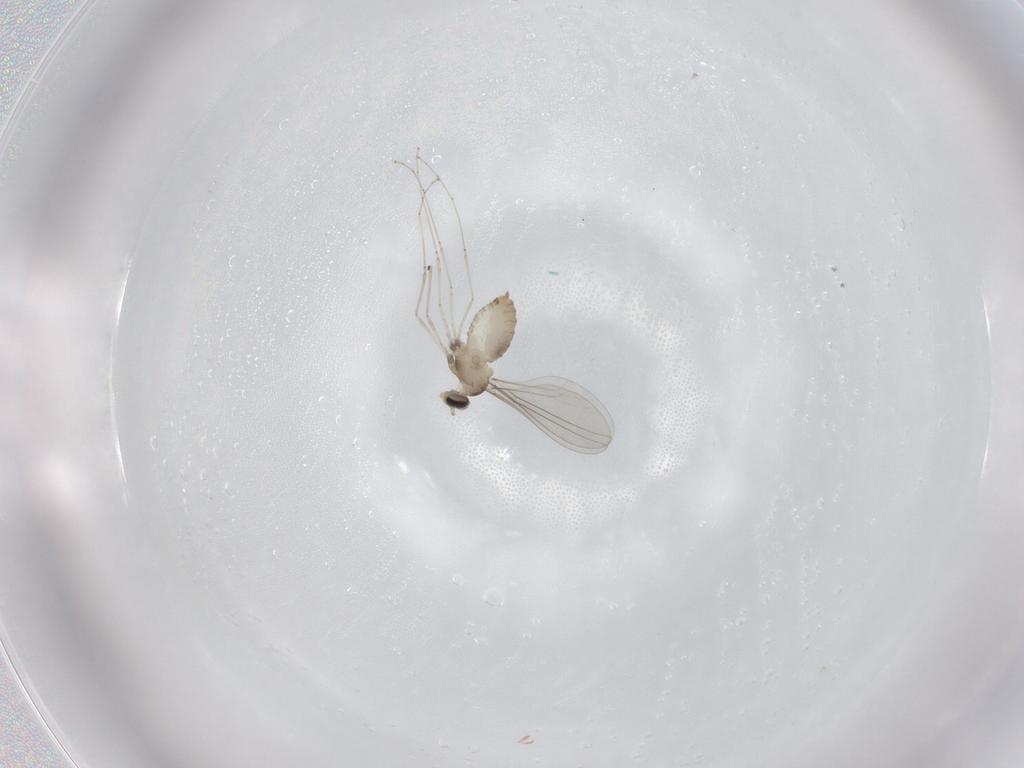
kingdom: Animalia
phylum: Arthropoda
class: Insecta
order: Diptera
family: Cecidomyiidae
